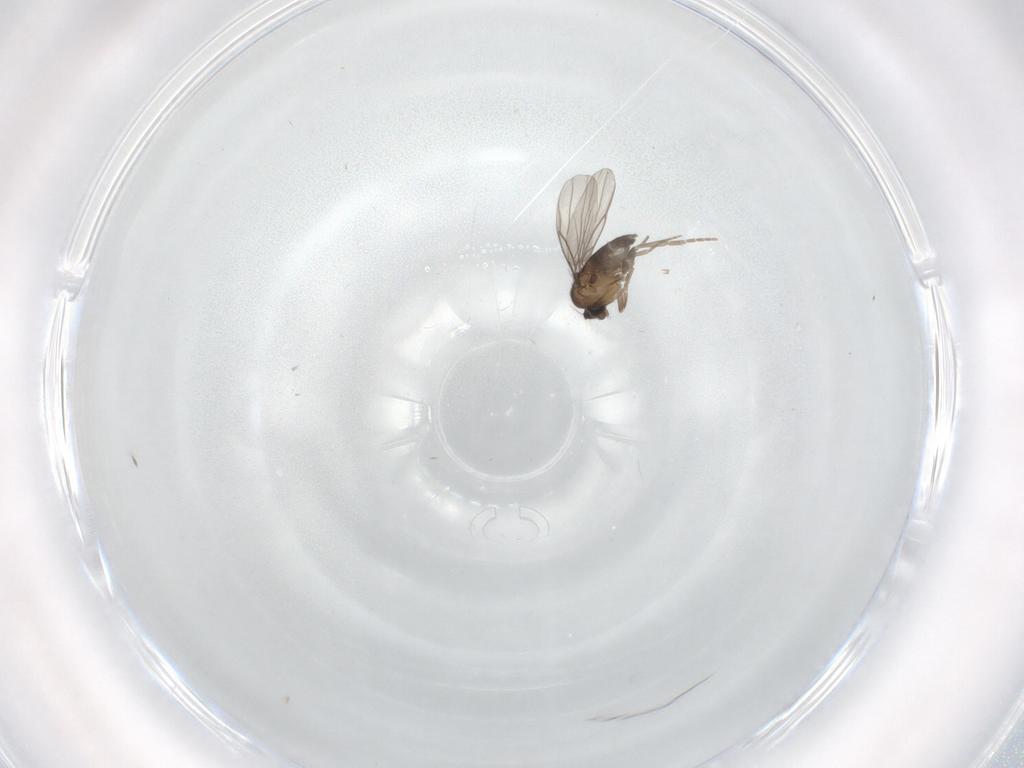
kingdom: Animalia
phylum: Arthropoda
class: Insecta
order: Diptera
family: Phoridae
